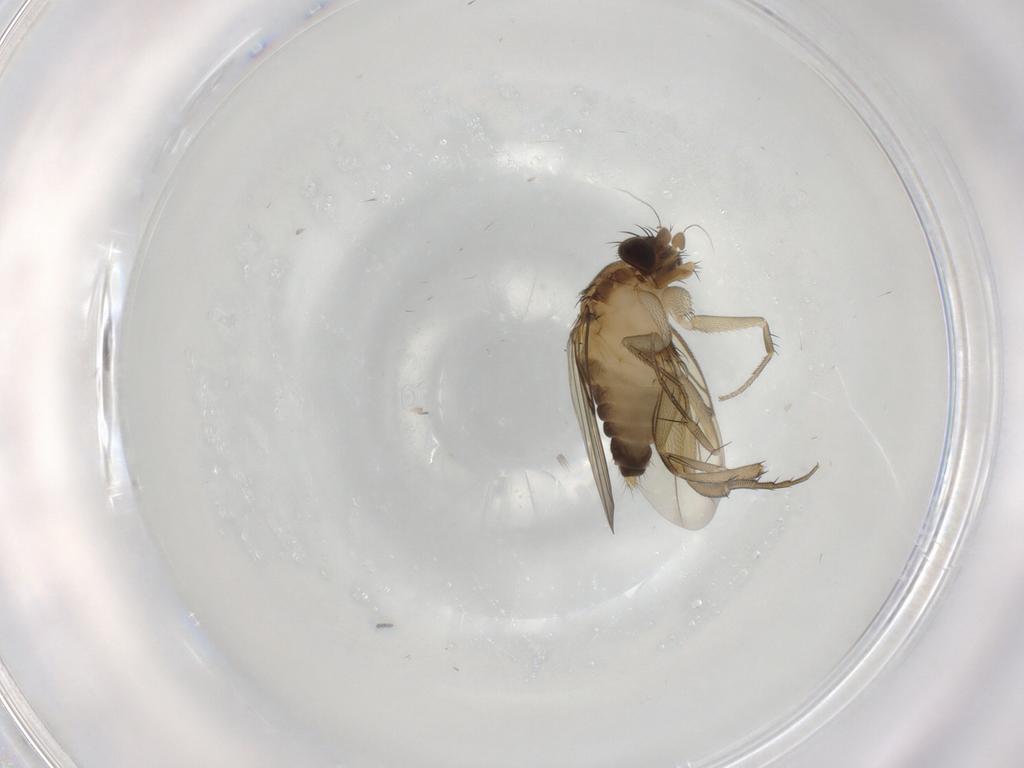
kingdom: Animalia
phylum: Arthropoda
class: Insecta
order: Diptera
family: Phoridae
